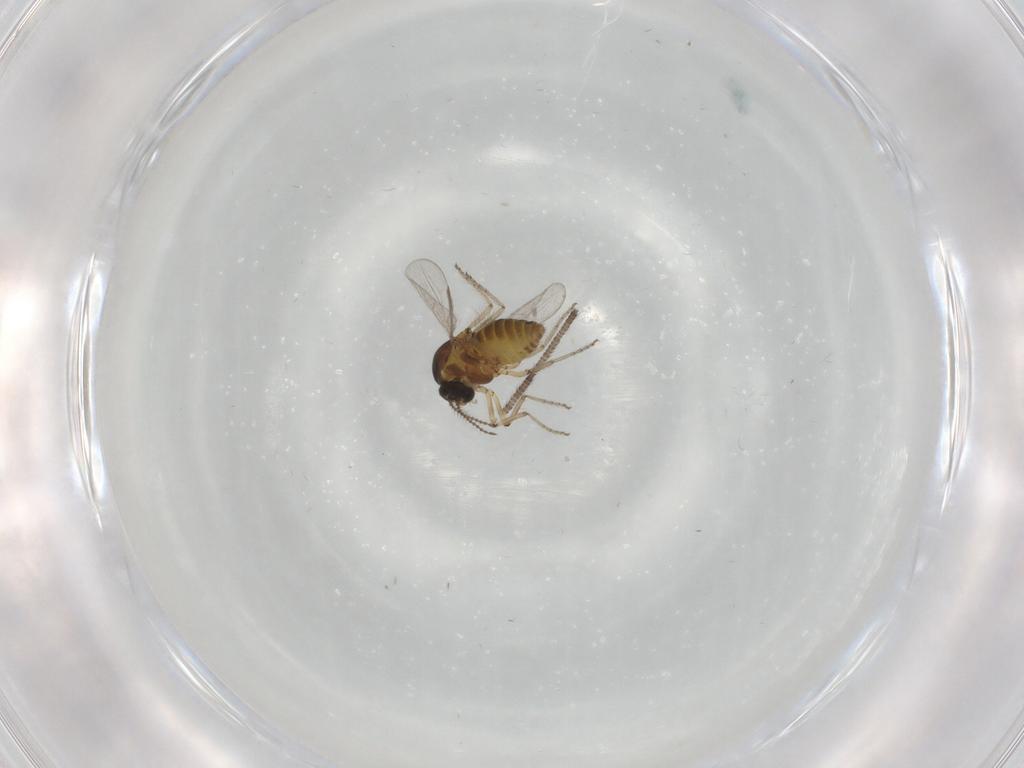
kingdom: Animalia
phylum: Arthropoda
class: Insecta
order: Diptera
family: Ceratopogonidae
